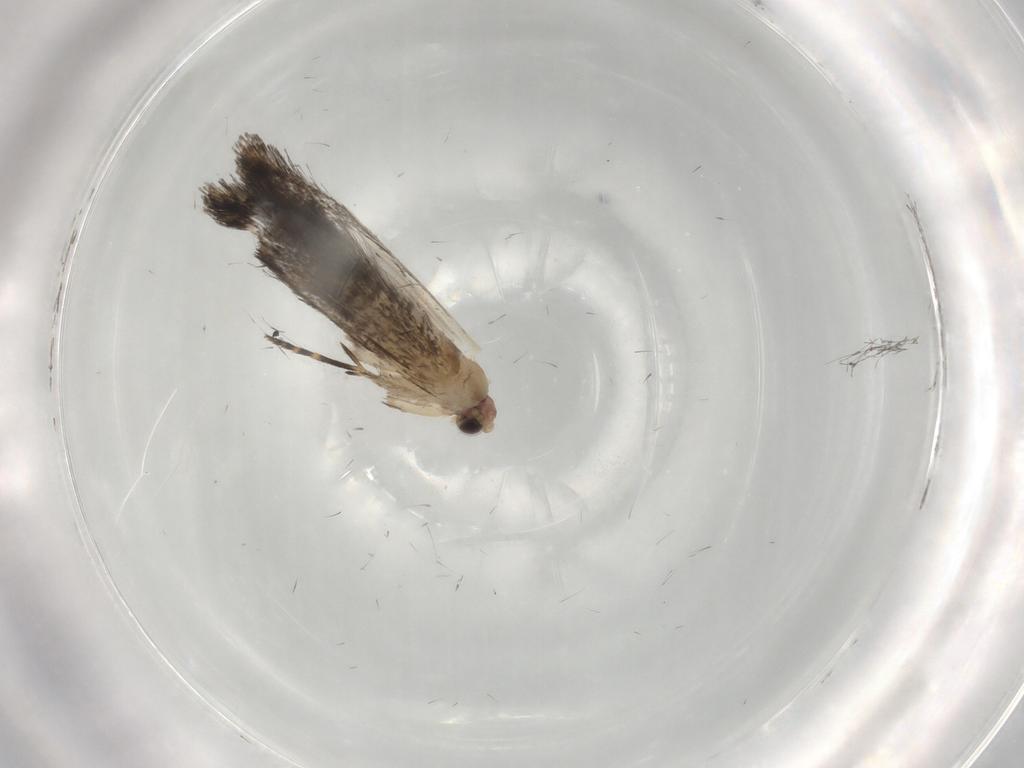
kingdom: Animalia
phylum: Arthropoda
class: Insecta
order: Lepidoptera
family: Tineidae
